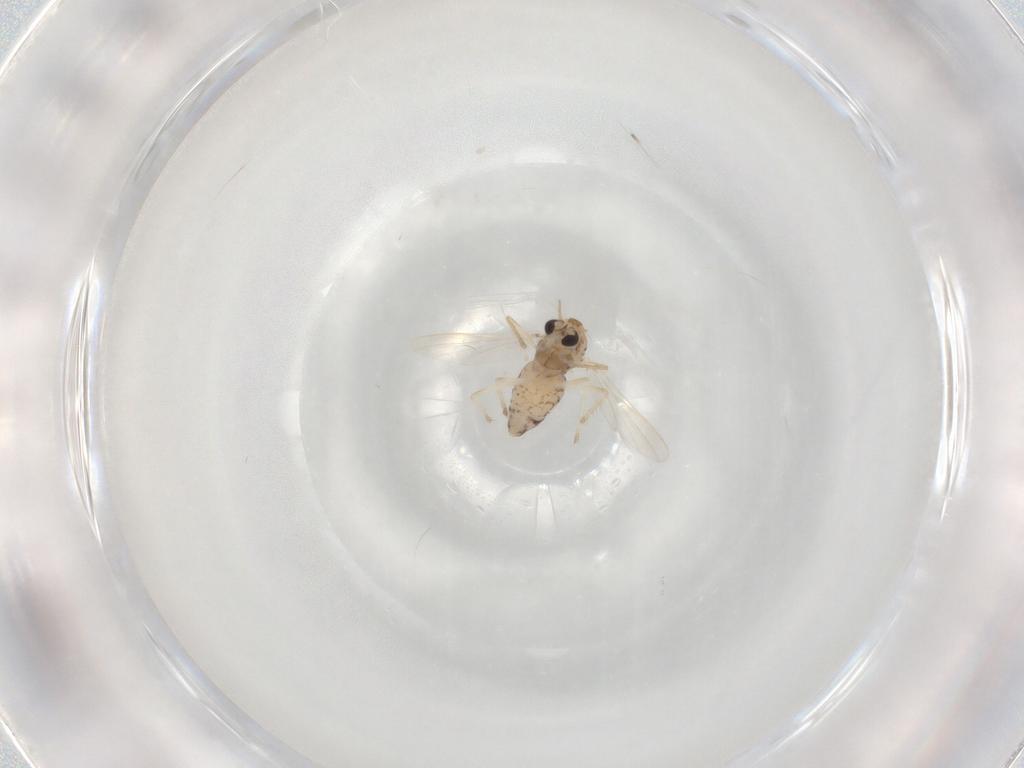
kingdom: Animalia
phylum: Arthropoda
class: Insecta
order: Diptera
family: Chironomidae
